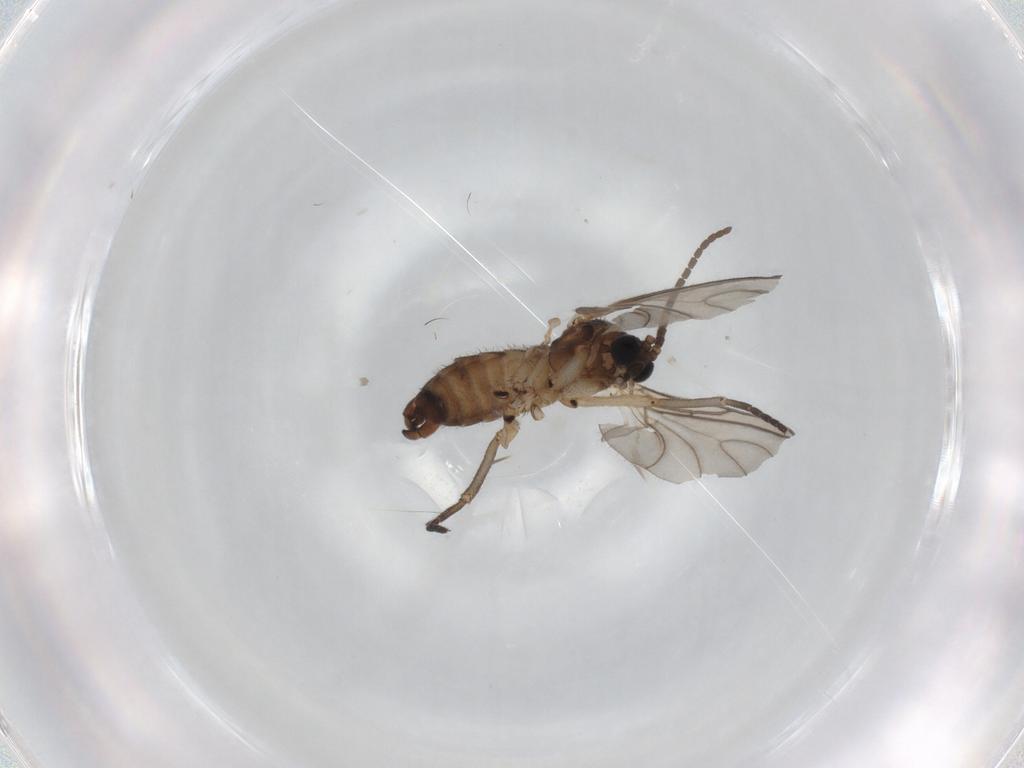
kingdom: Animalia
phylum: Arthropoda
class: Insecta
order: Diptera
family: Sciaridae
